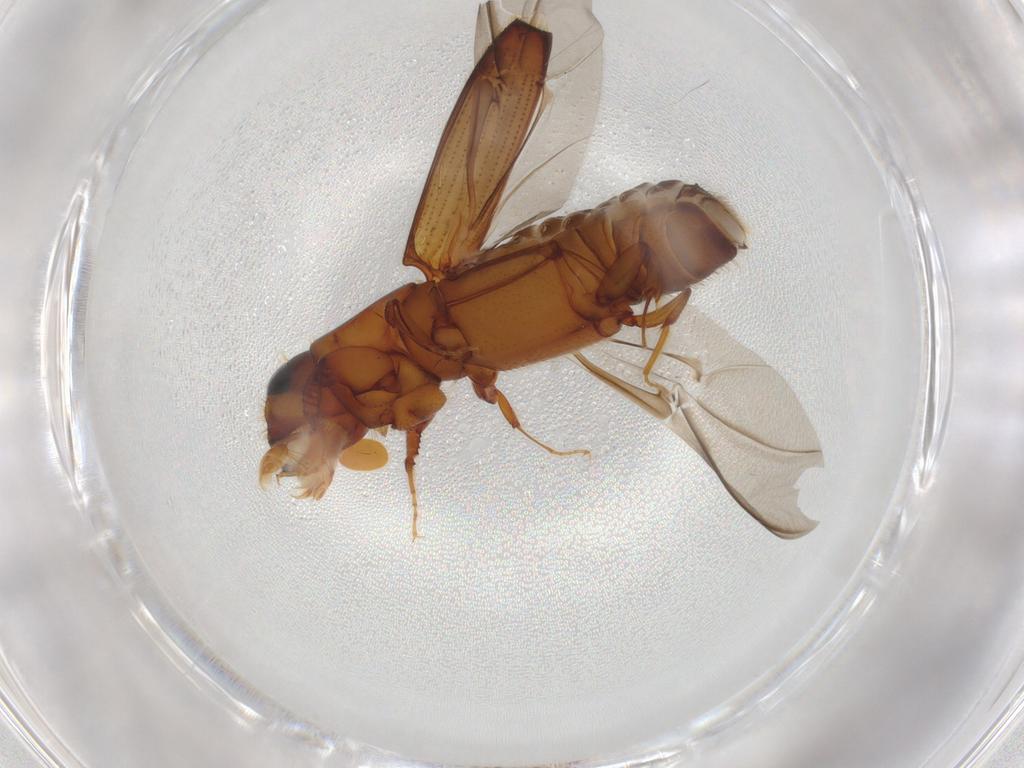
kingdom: Animalia
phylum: Arthropoda
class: Insecta
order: Coleoptera
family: Curculionidae
